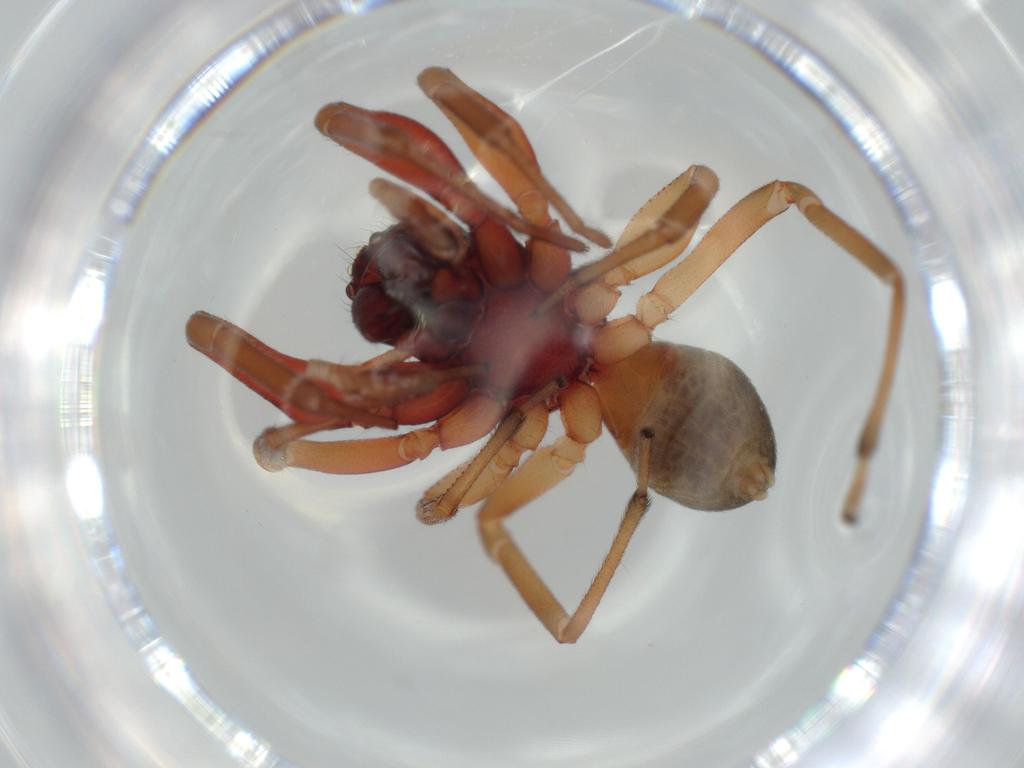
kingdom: Animalia
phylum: Arthropoda
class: Arachnida
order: Araneae
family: Trachelidae
